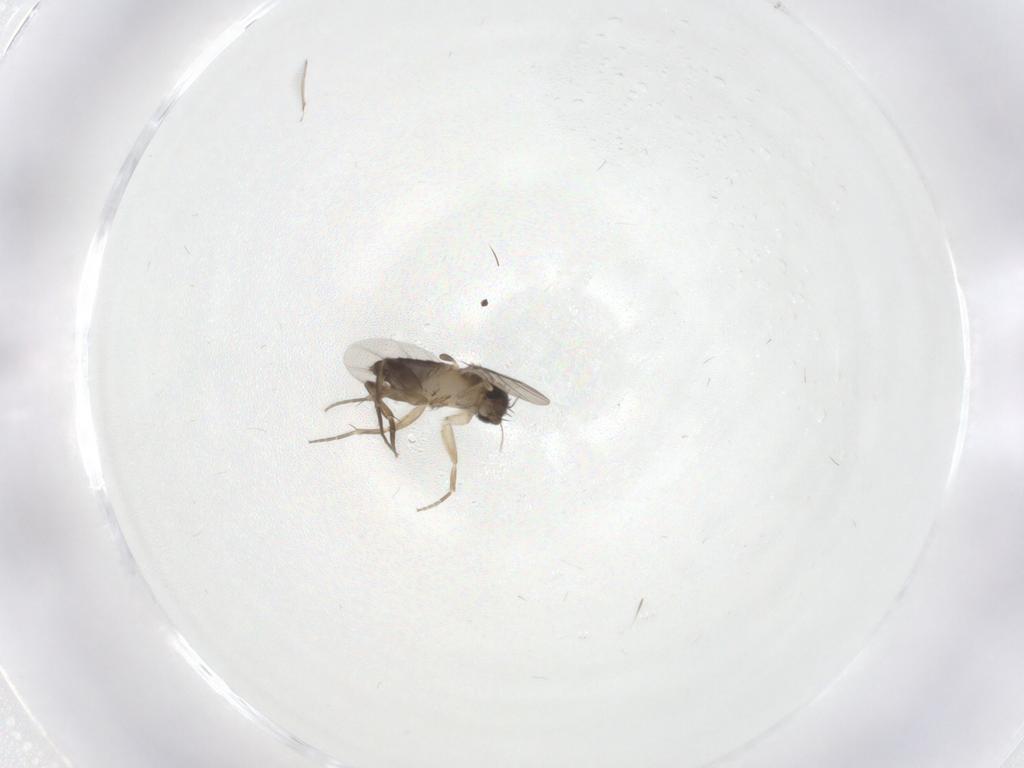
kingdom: Animalia
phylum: Arthropoda
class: Insecta
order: Diptera
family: Phoridae
